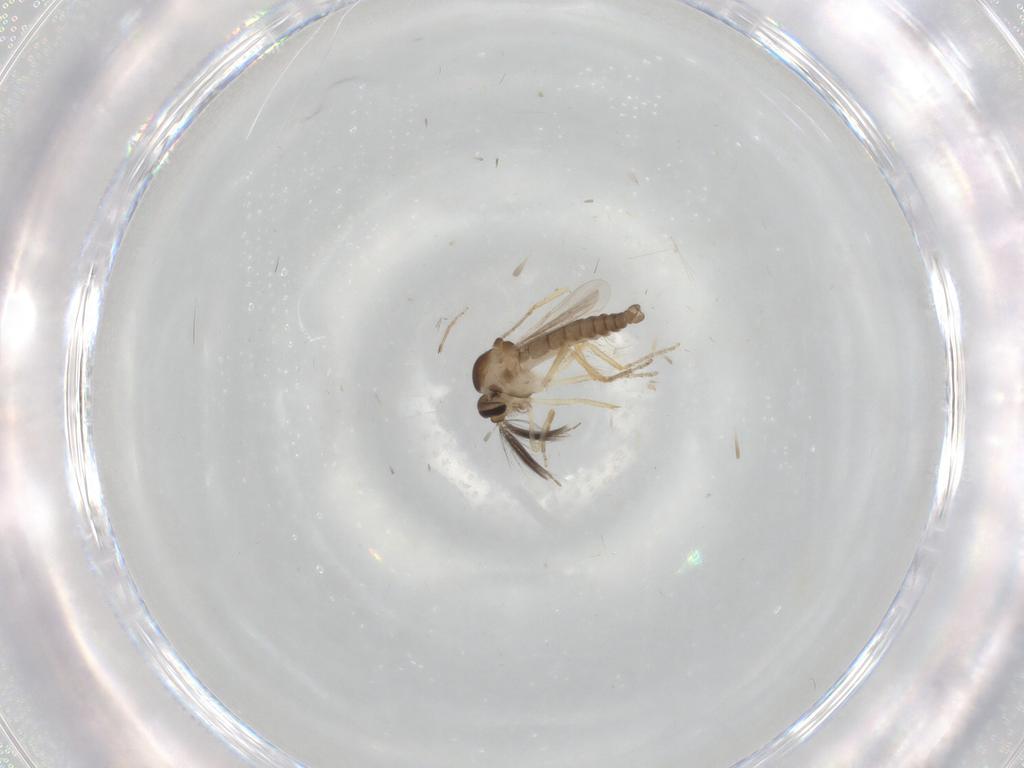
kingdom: Animalia
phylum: Arthropoda
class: Insecta
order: Diptera
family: Ceratopogonidae
